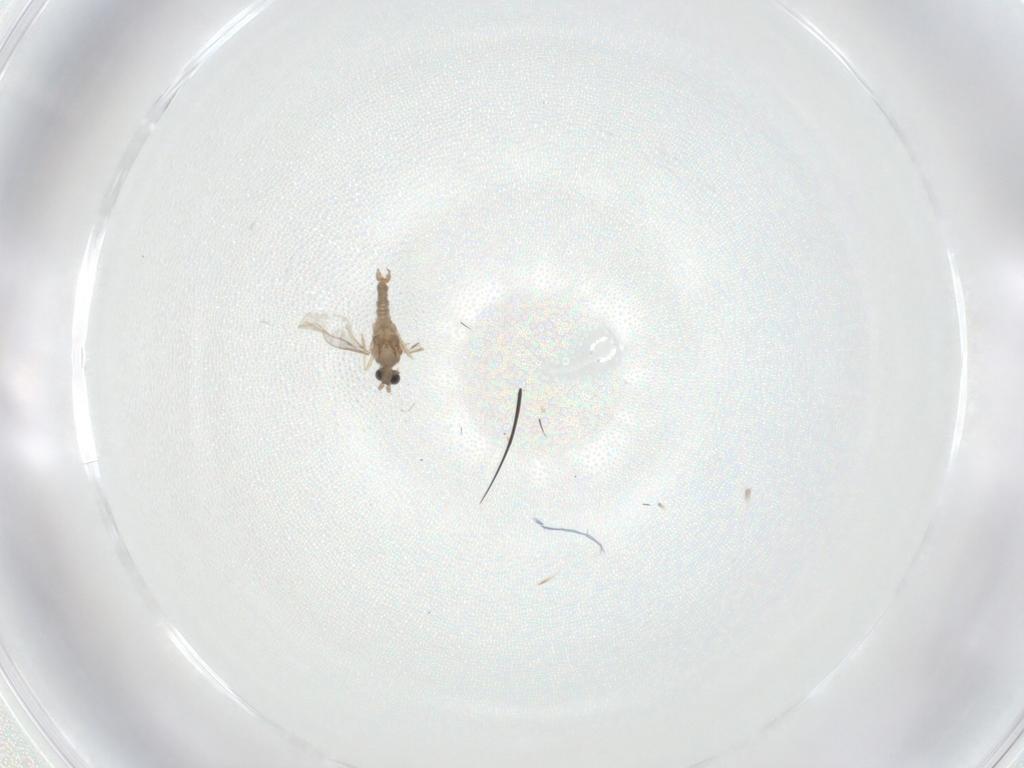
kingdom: Animalia
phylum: Arthropoda
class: Insecta
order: Diptera
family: Cecidomyiidae
